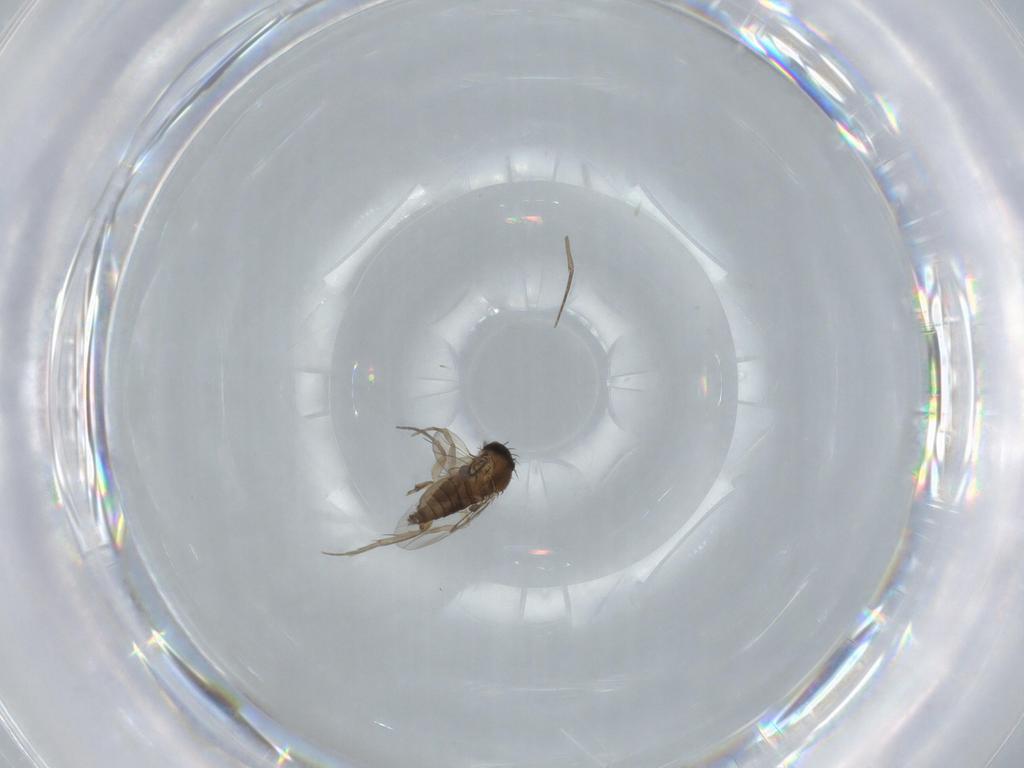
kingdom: Animalia
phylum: Arthropoda
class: Insecta
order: Diptera
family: Phoridae
